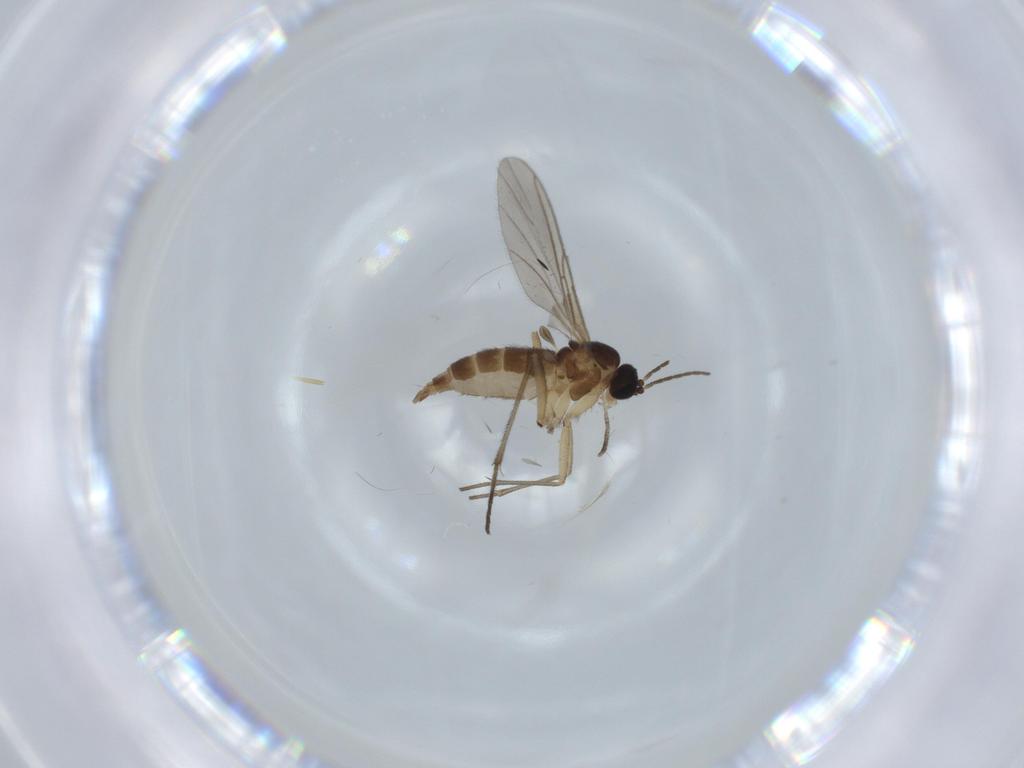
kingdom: Animalia
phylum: Arthropoda
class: Insecta
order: Diptera
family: Sciaridae
